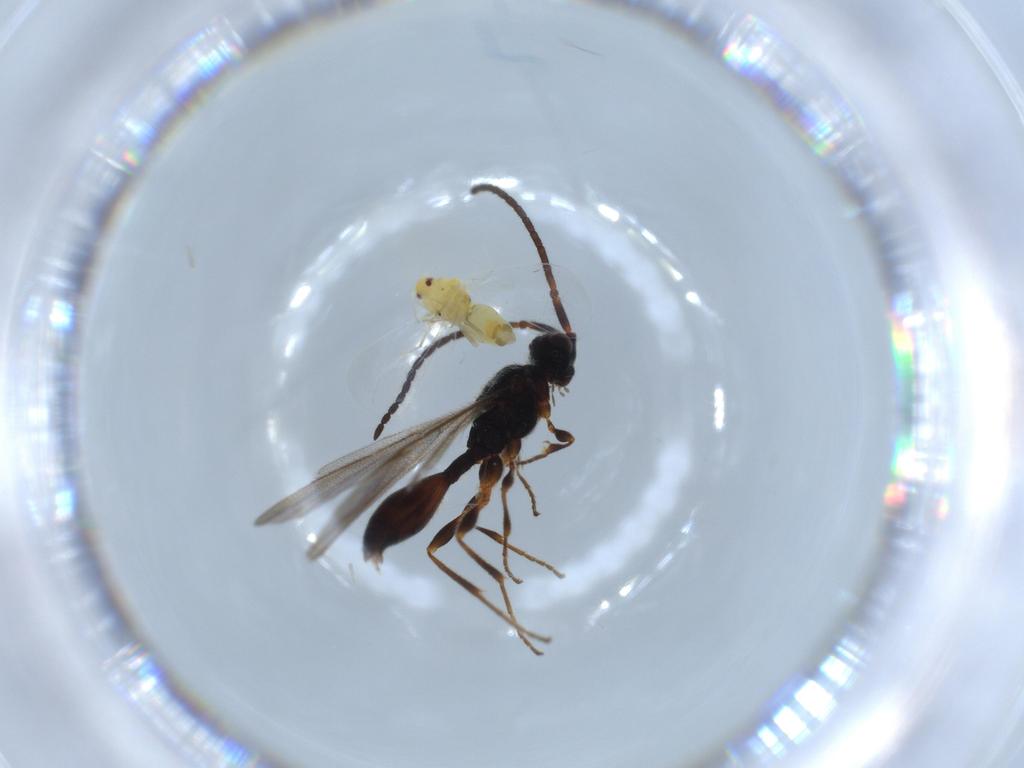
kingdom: Animalia
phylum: Arthropoda
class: Insecta
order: Hemiptera
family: Aleyrodidae
